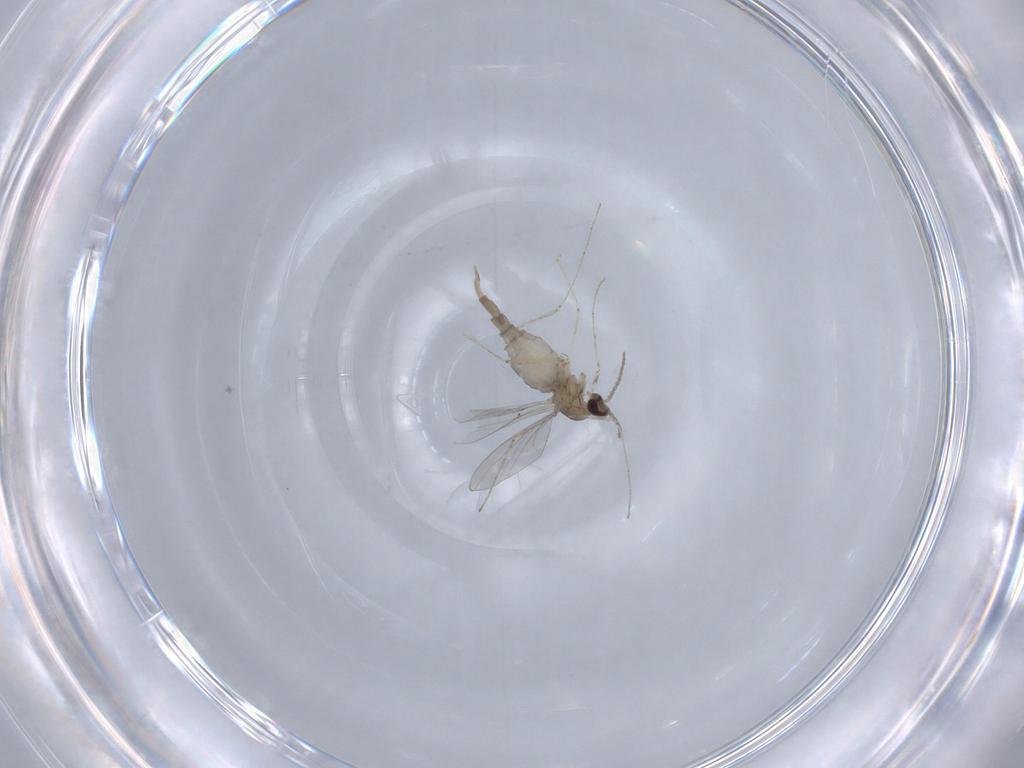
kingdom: Animalia
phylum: Arthropoda
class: Insecta
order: Diptera
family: Cecidomyiidae
